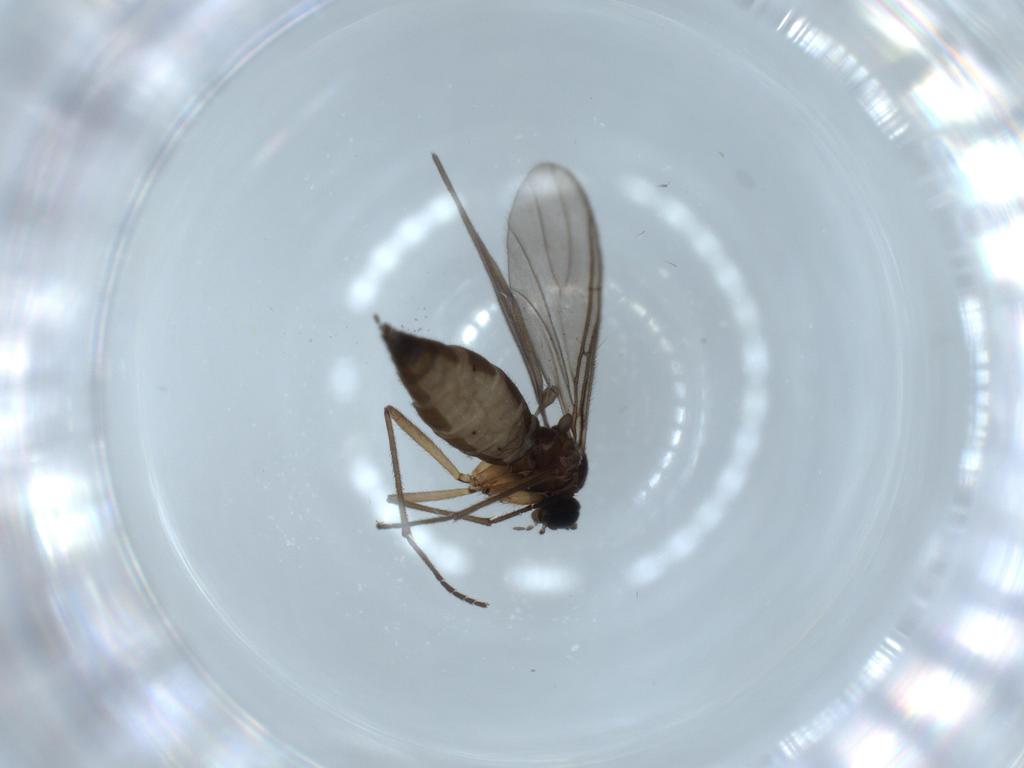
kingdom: Animalia
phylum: Arthropoda
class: Insecta
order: Diptera
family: Sciaridae
